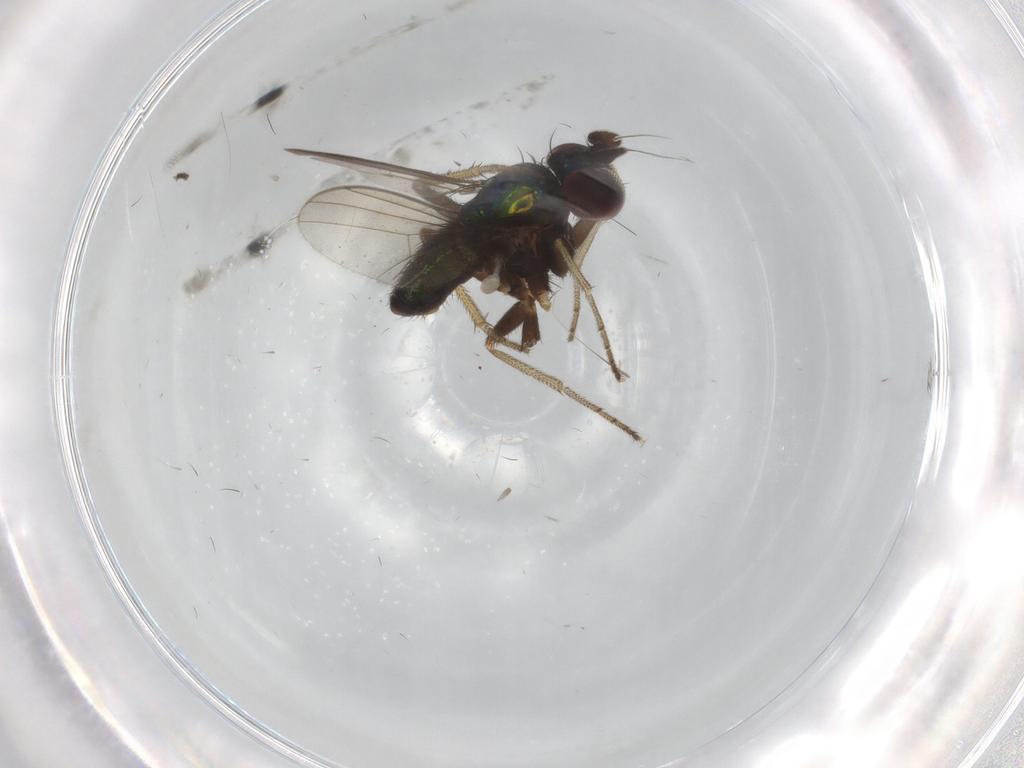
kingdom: Animalia
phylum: Arthropoda
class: Insecta
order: Diptera
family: Dolichopodidae
